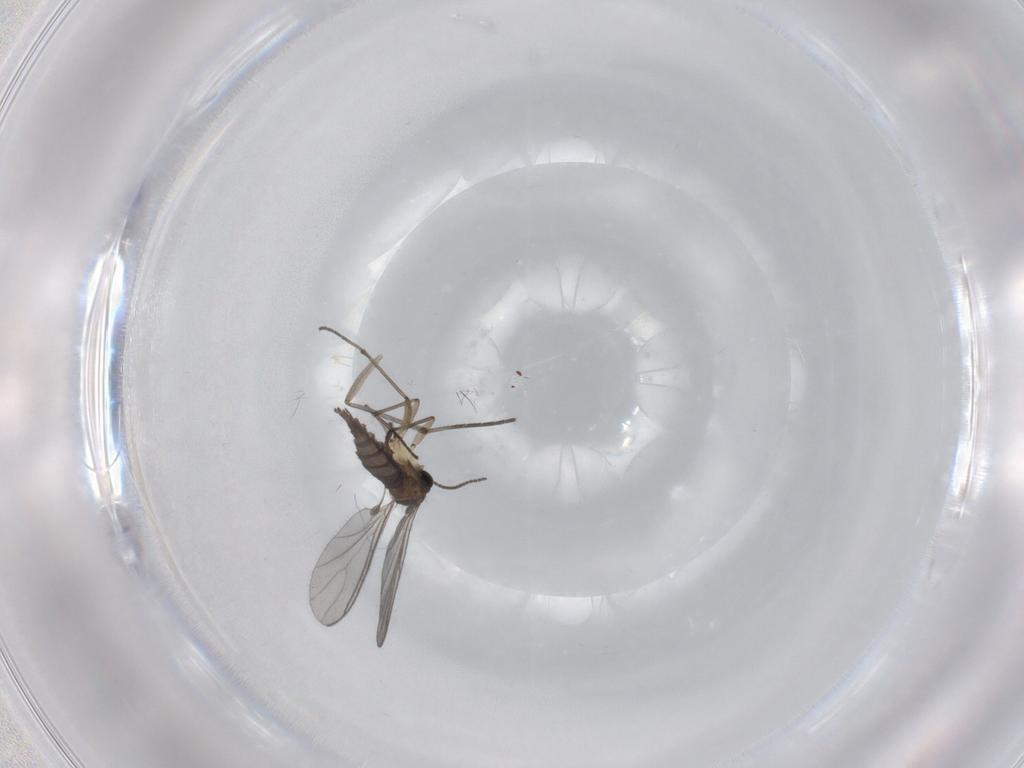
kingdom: Animalia
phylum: Arthropoda
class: Insecta
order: Diptera
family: Sciaridae
